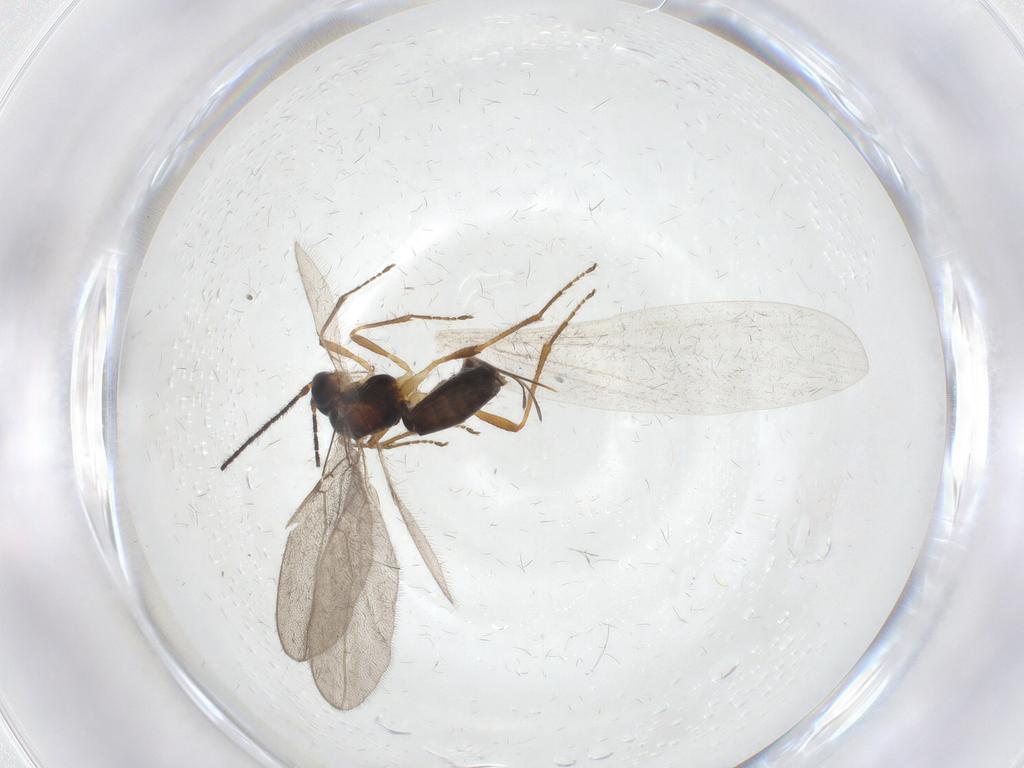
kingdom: Animalia
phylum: Arthropoda
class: Insecta
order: Hymenoptera
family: Braconidae
